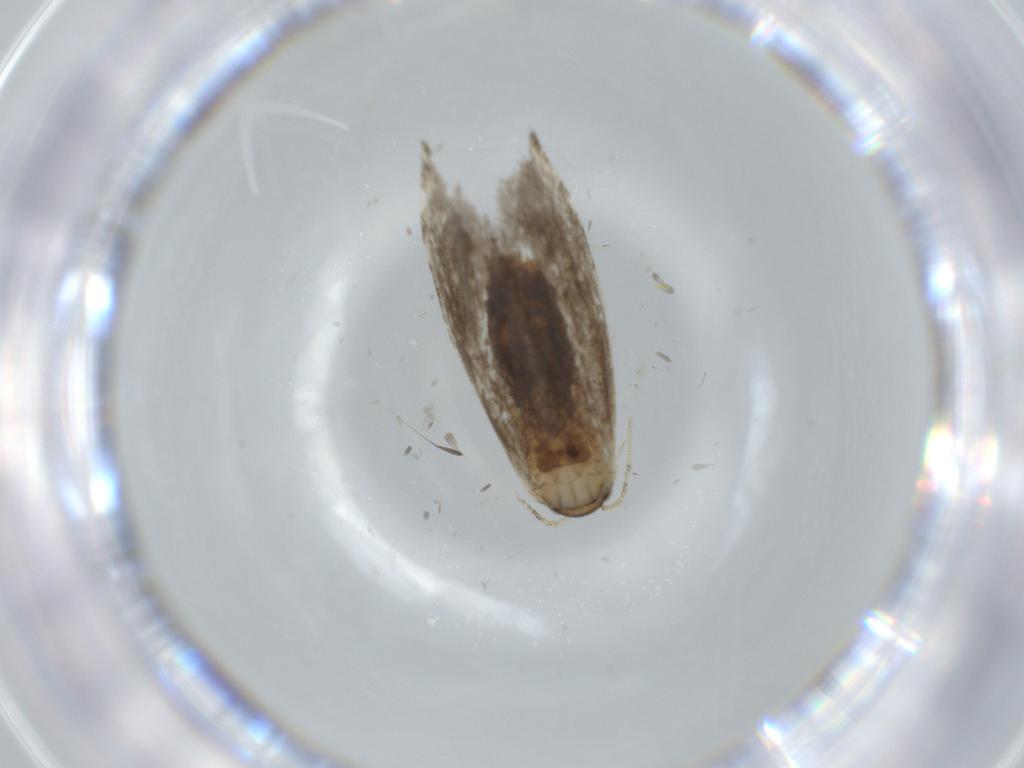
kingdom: Animalia
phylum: Arthropoda
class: Insecta
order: Lepidoptera
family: Tineidae
